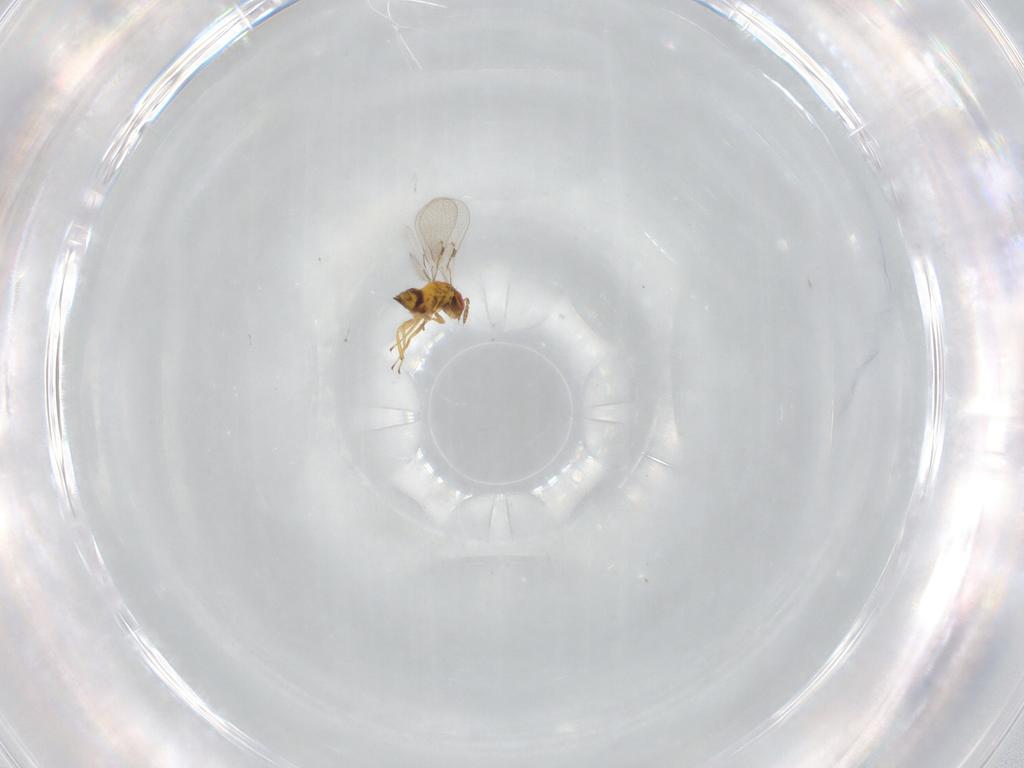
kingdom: Animalia
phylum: Arthropoda
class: Insecta
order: Hymenoptera
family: Trichogrammatidae
